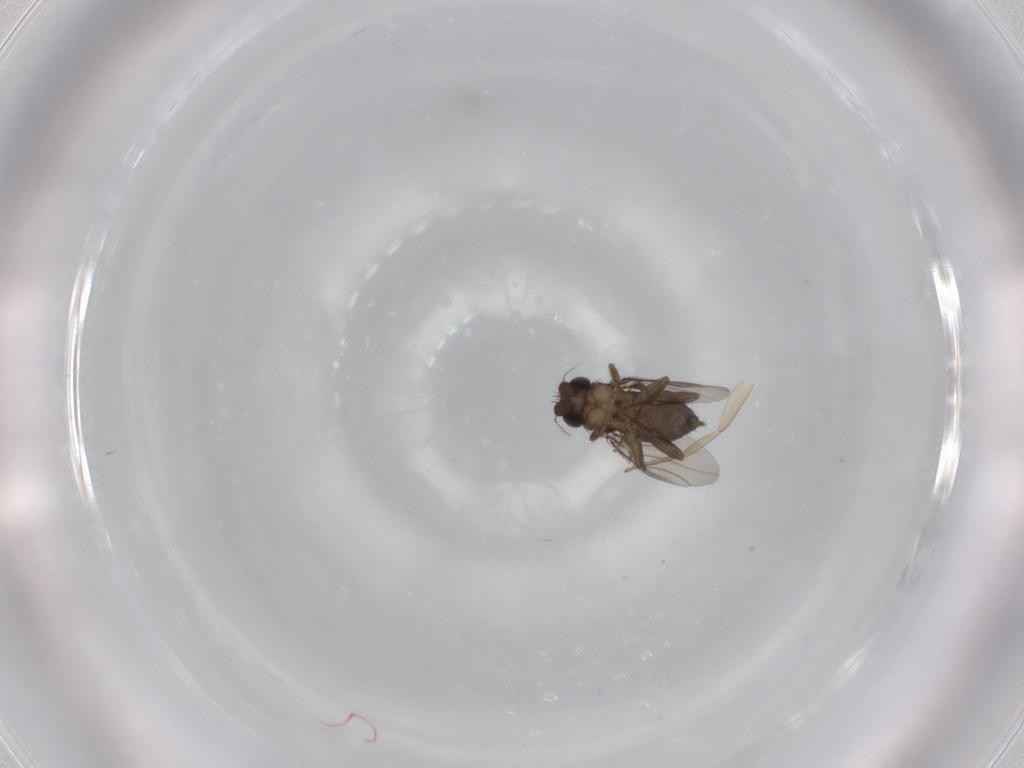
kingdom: Animalia
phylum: Arthropoda
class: Insecta
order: Diptera
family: Phoridae
